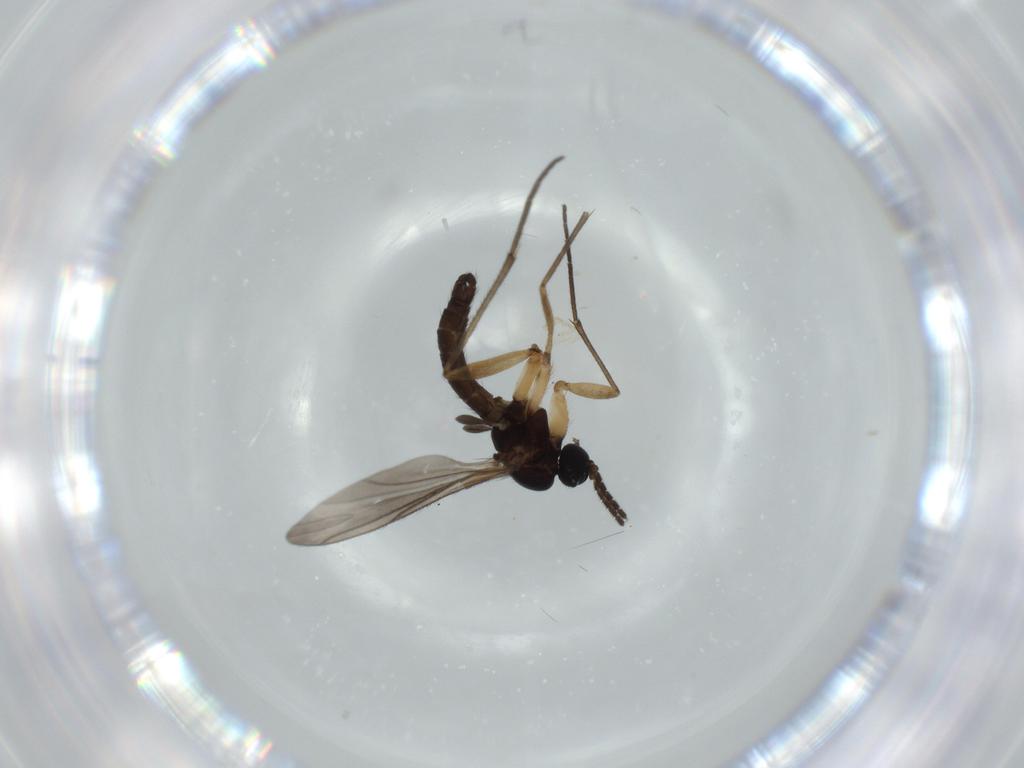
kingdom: Animalia
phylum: Arthropoda
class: Insecta
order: Diptera
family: Sciaridae
